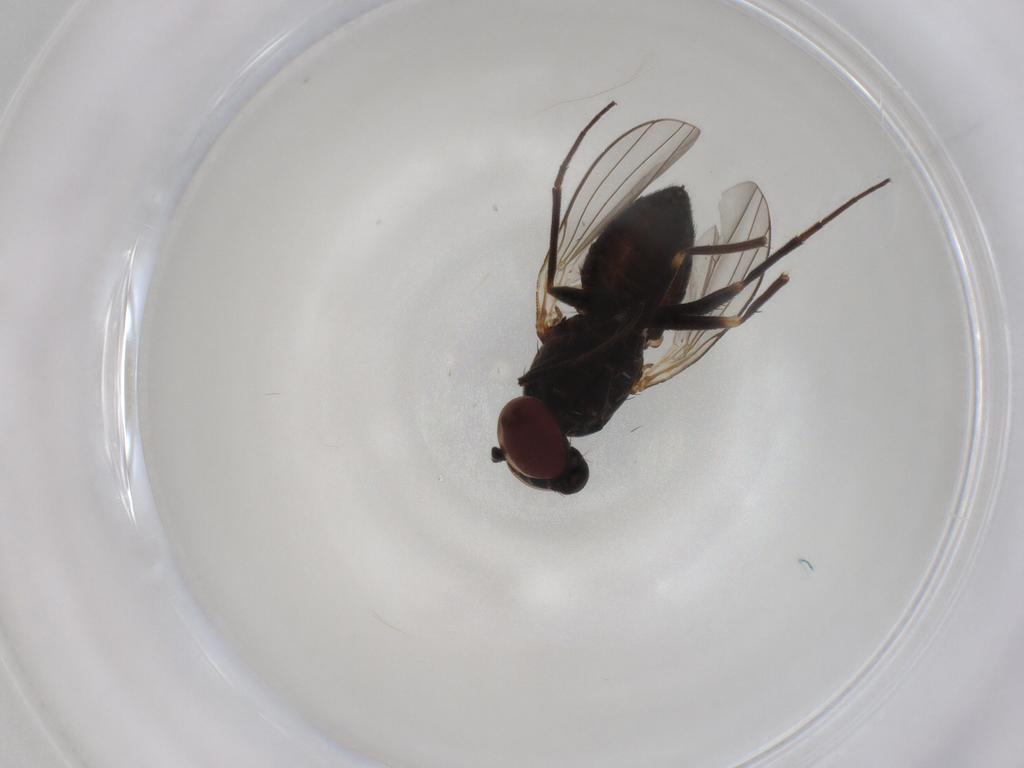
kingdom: Animalia
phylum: Arthropoda
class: Insecta
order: Diptera
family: Dolichopodidae
